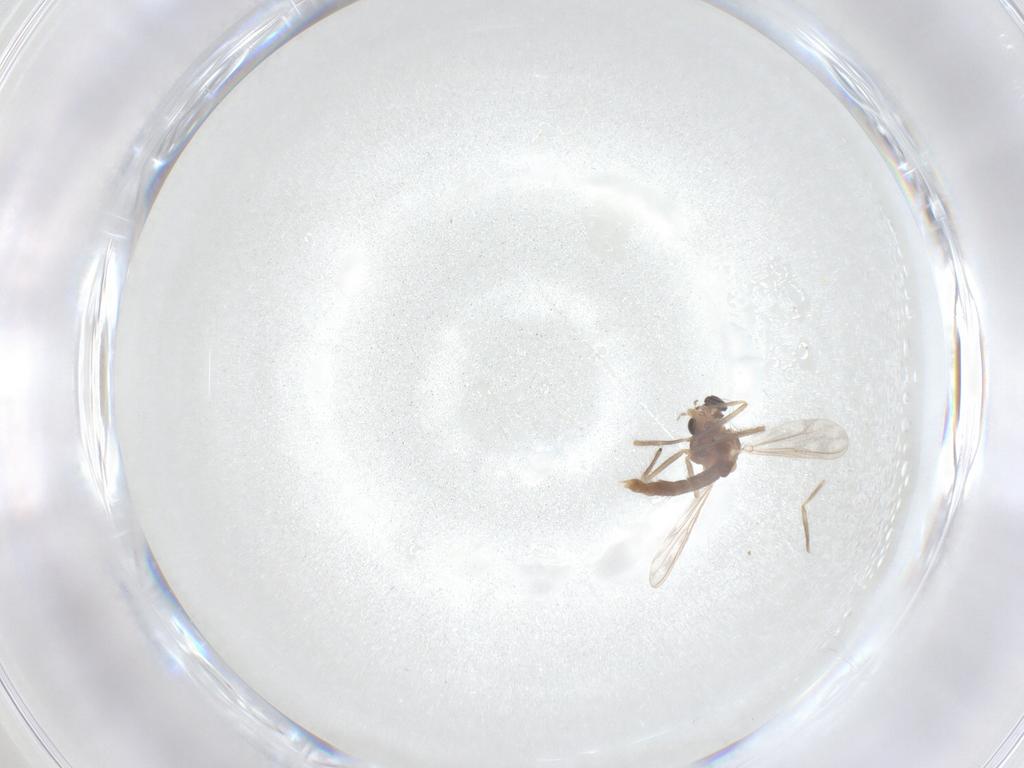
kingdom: Animalia
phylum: Arthropoda
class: Insecta
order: Diptera
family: Chironomidae
